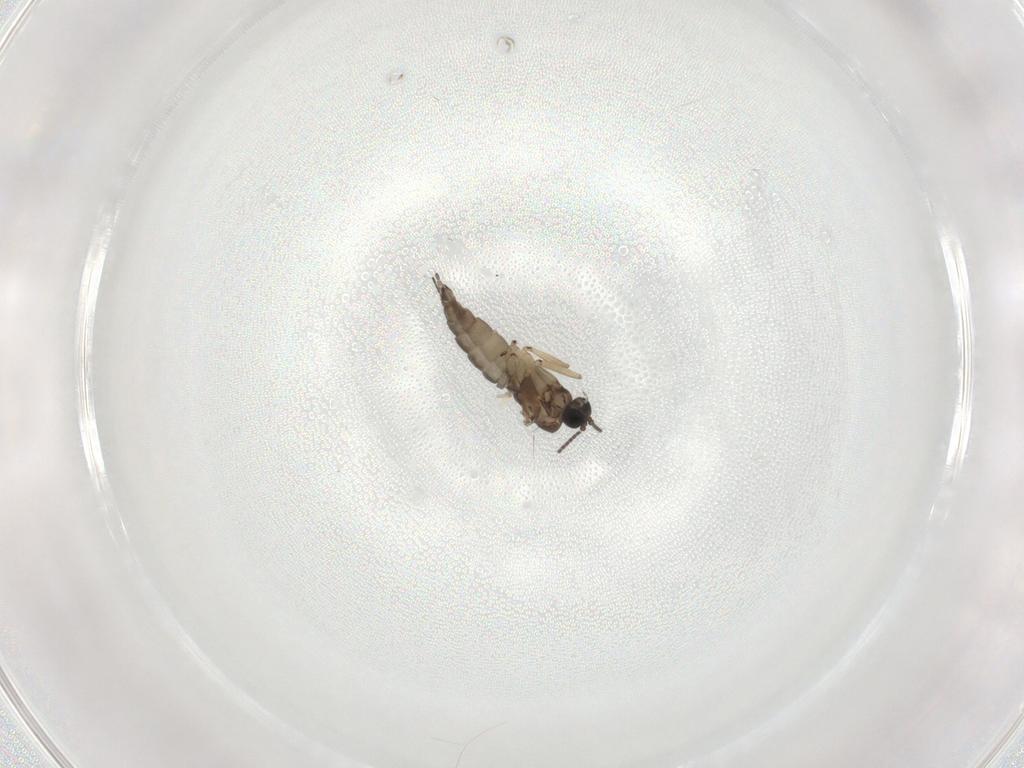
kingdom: Animalia
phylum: Arthropoda
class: Insecta
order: Diptera
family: Sciaridae
